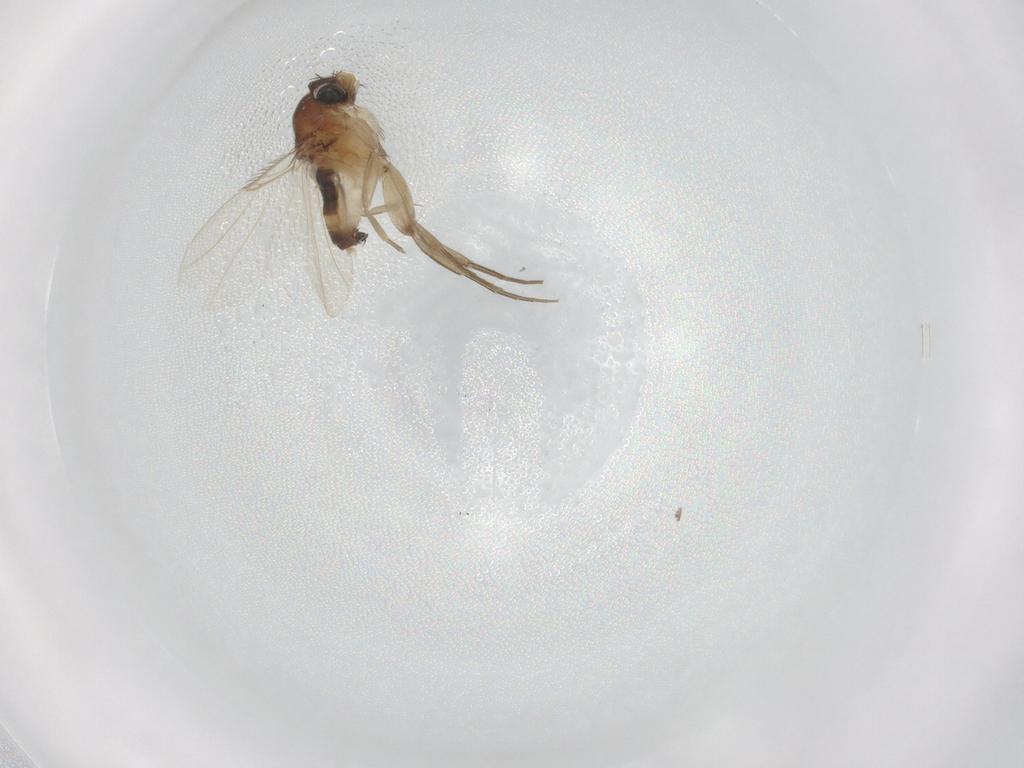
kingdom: Animalia
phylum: Arthropoda
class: Insecta
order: Diptera
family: Phoridae
